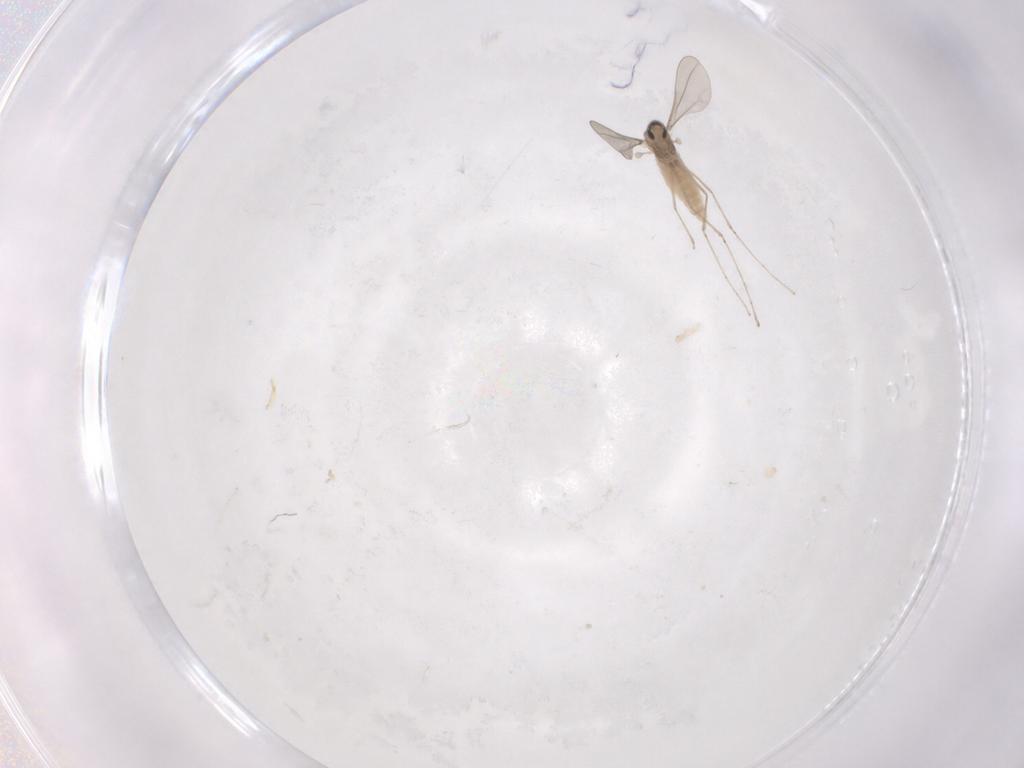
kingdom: Animalia
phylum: Arthropoda
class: Insecta
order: Diptera
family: Cecidomyiidae
